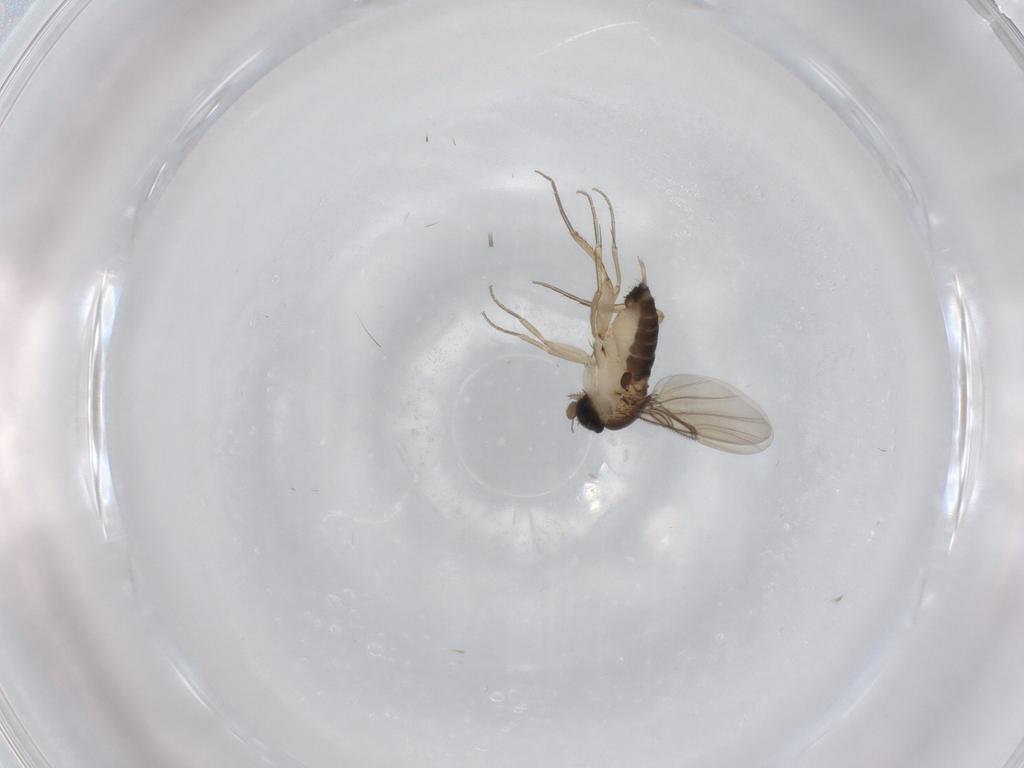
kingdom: Animalia
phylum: Arthropoda
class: Insecta
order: Diptera
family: Phoridae
